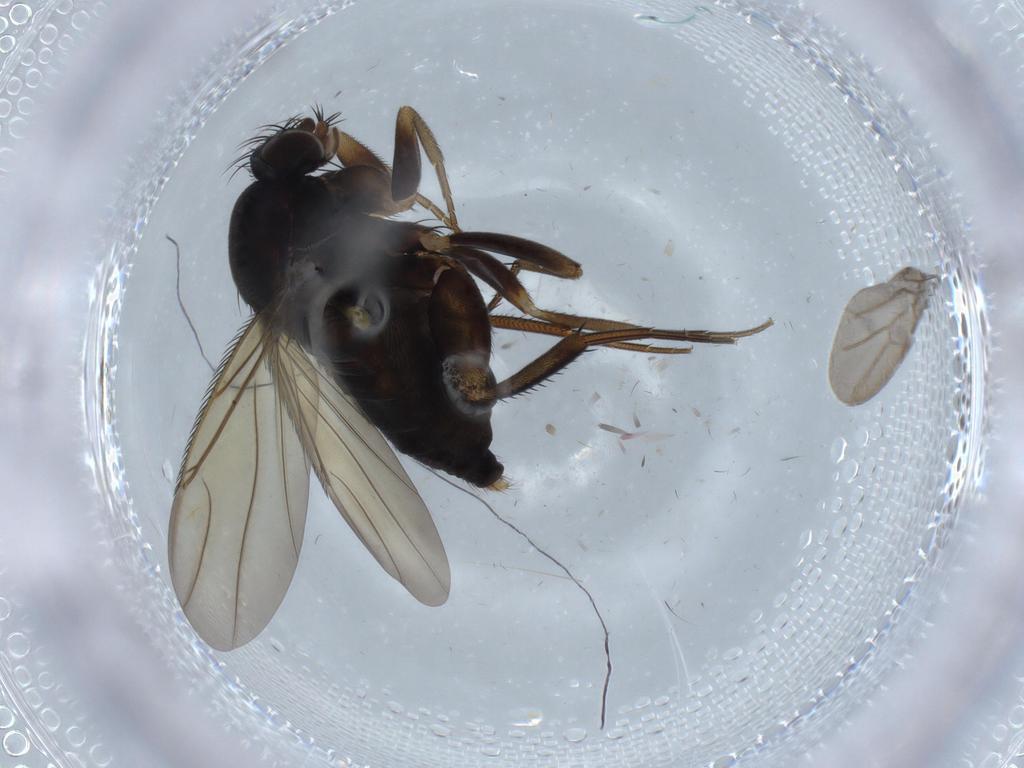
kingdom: Animalia
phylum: Arthropoda
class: Insecta
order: Diptera
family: Phoridae
